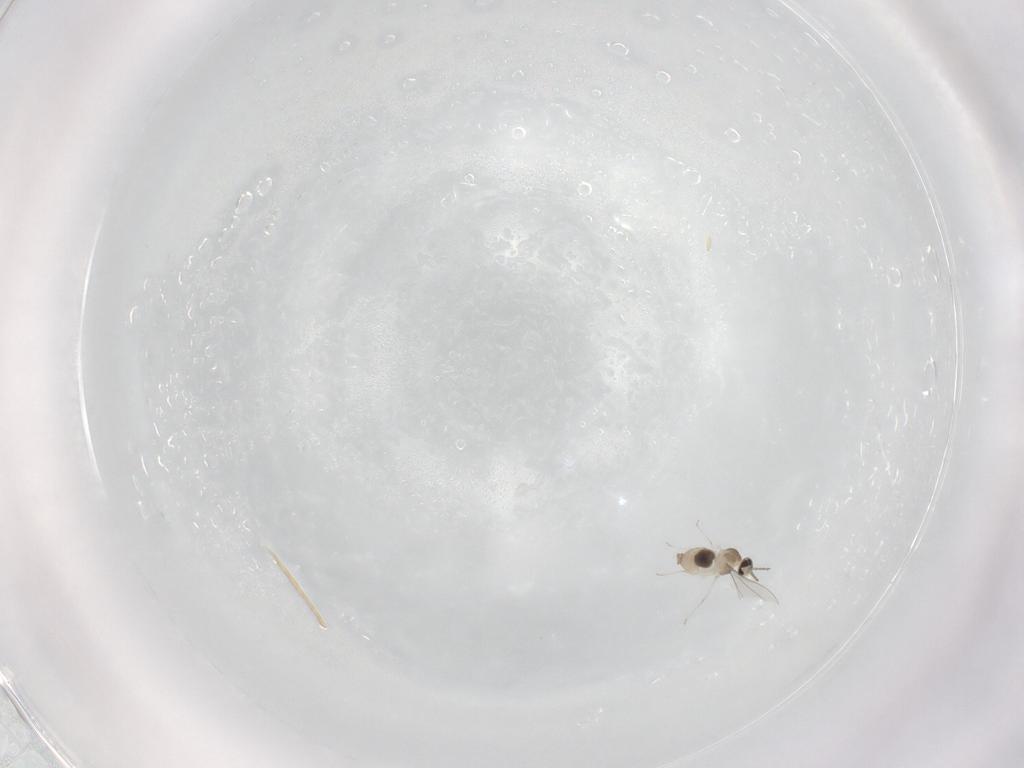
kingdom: Animalia
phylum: Arthropoda
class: Insecta
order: Diptera
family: Cecidomyiidae
